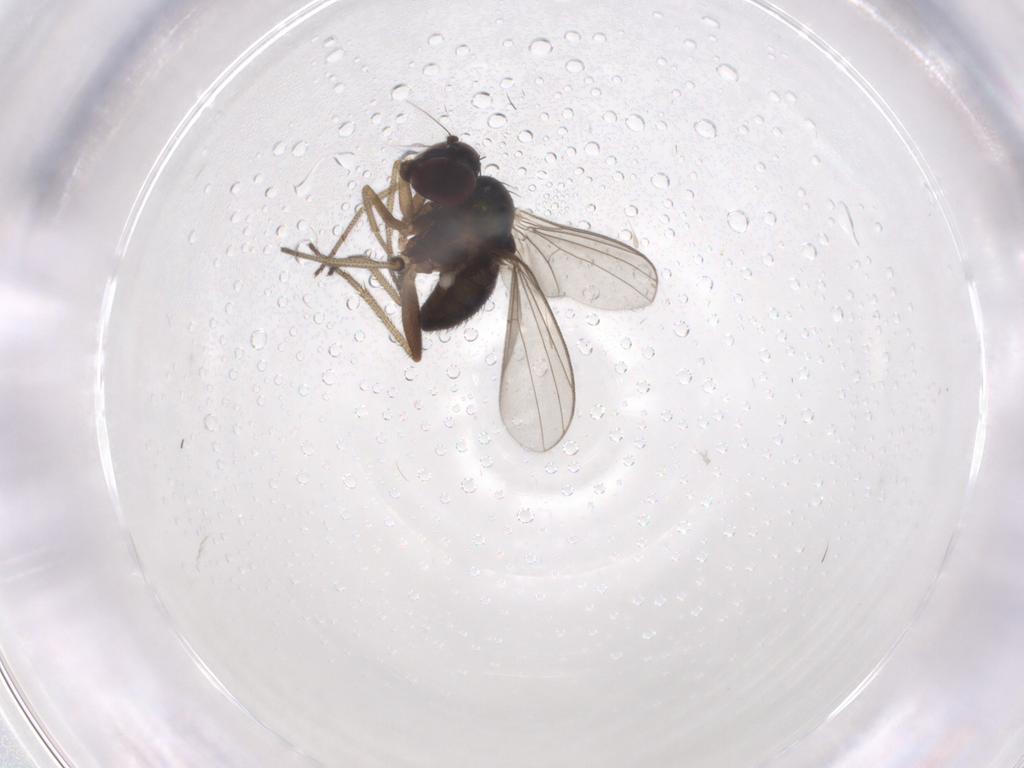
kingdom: Animalia
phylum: Arthropoda
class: Insecta
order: Diptera
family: Dolichopodidae
